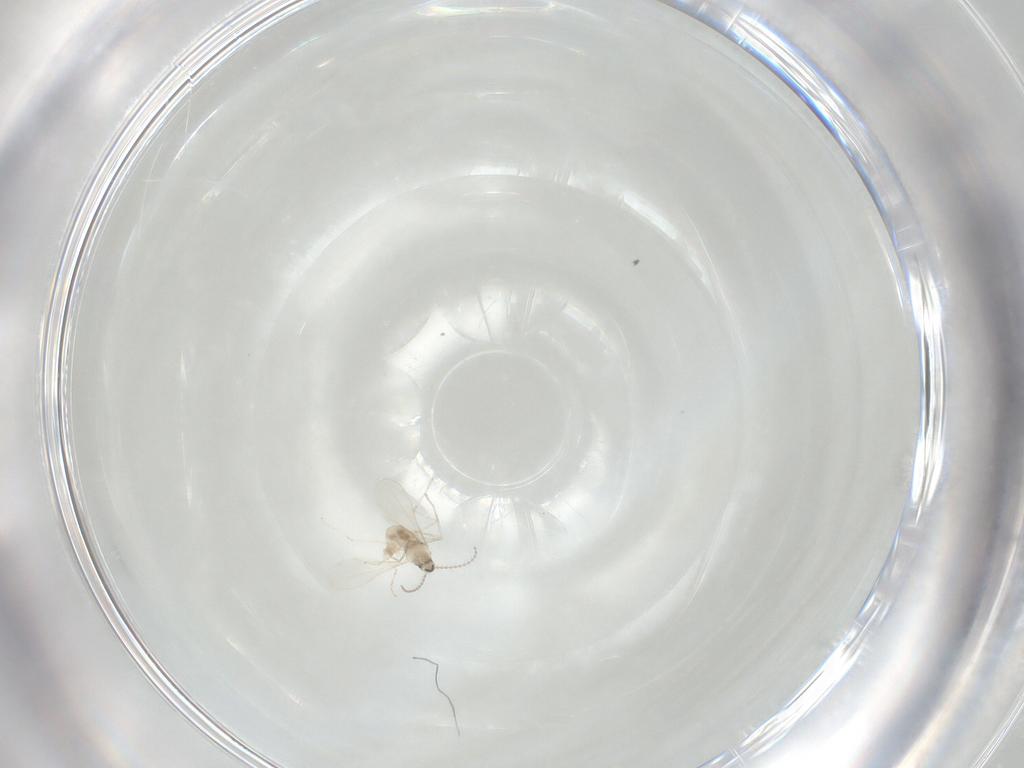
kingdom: Animalia
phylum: Arthropoda
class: Insecta
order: Diptera
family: Cecidomyiidae
